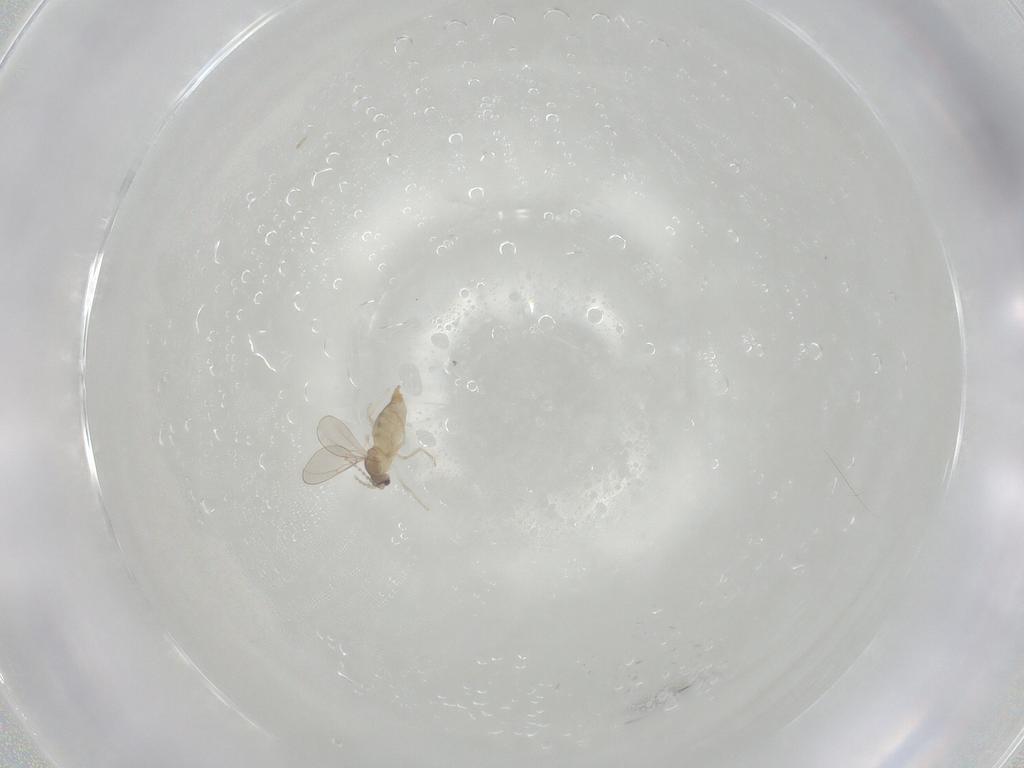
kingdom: Animalia
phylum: Arthropoda
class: Insecta
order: Diptera
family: Cecidomyiidae
